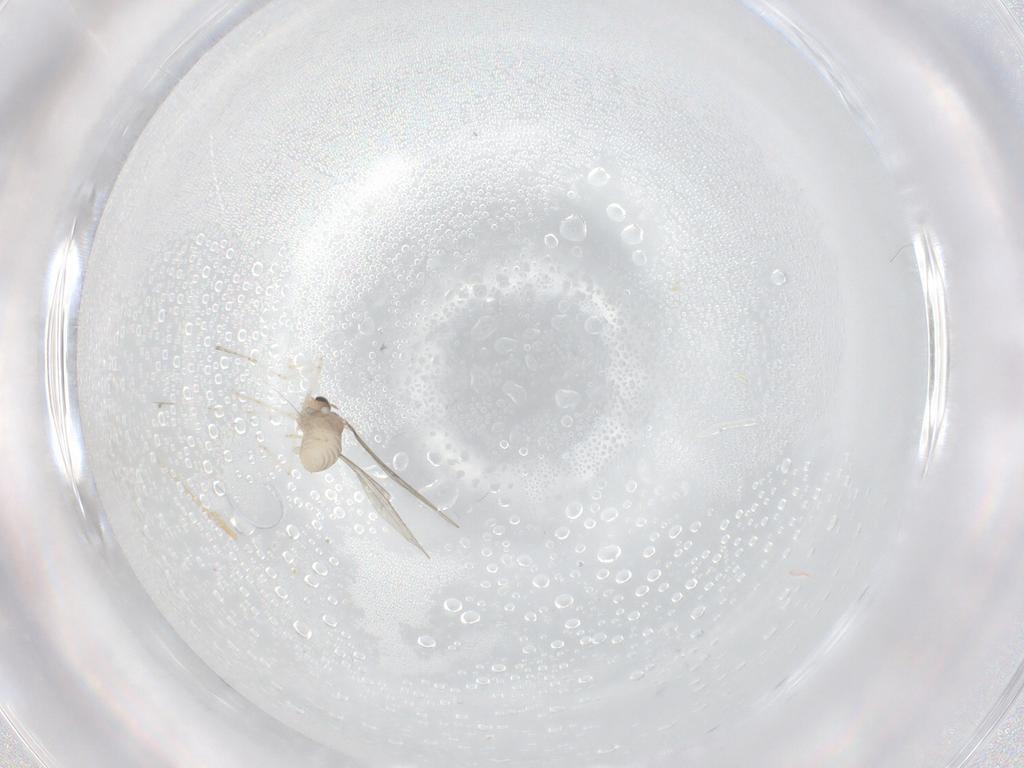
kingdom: Animalia
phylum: Arthropoda
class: Insecta
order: Diptera
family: Cecidomyiidae
